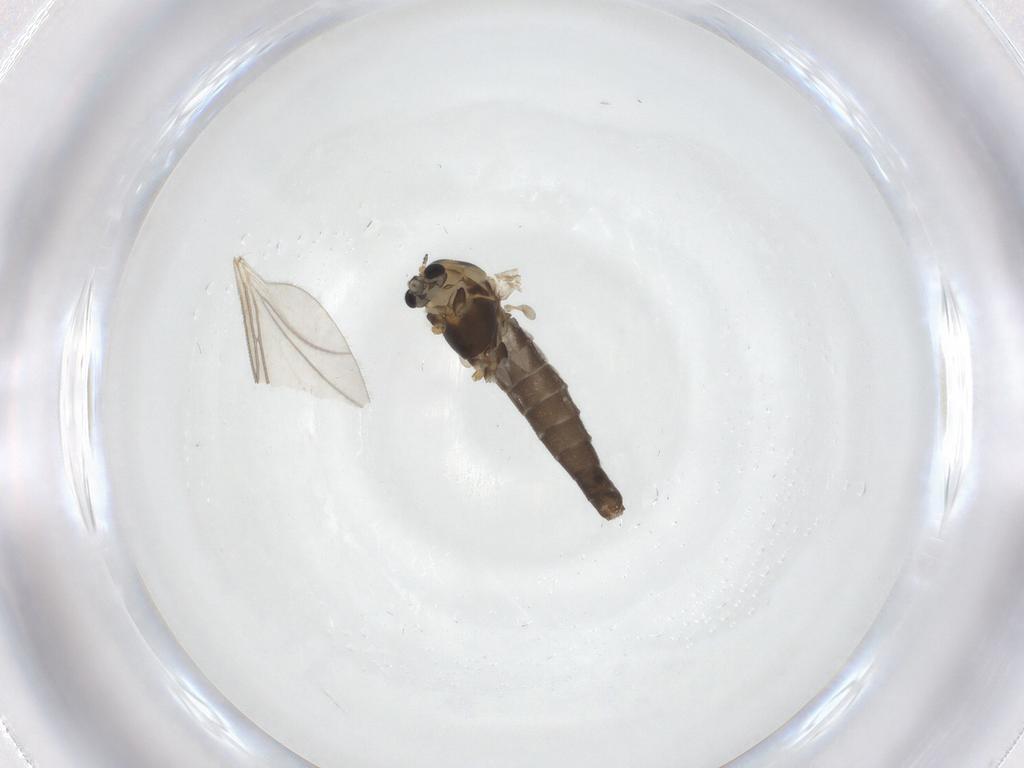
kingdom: Animalia
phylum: Arthropoda
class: Insecta
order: Diptera
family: Chironomidae
